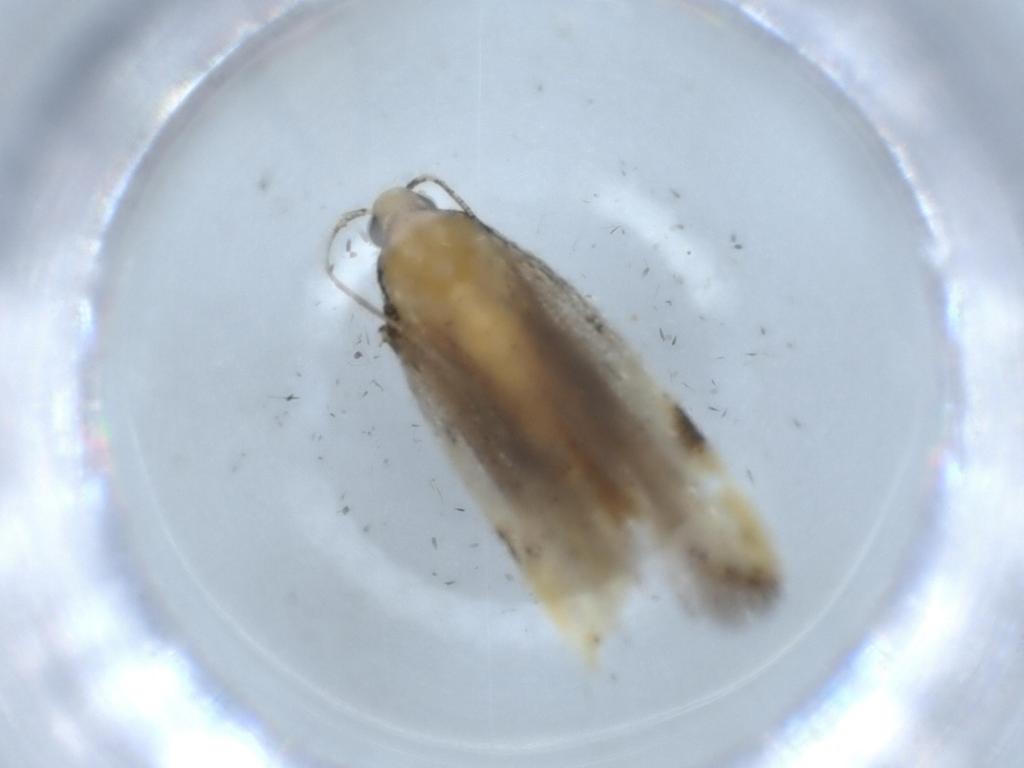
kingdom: Animalia
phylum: Arthropoda
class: Insecta
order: Lepidoptera
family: Autostichidae
